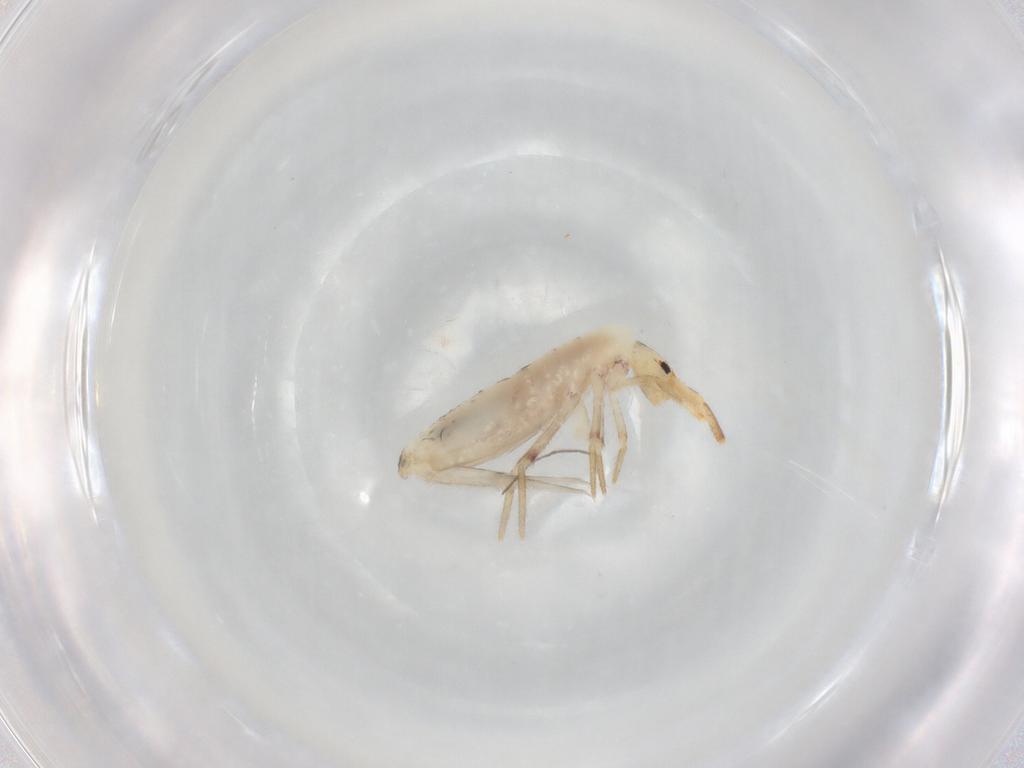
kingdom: Animalia
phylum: Arthropoda
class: Collembola
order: Poduromorpha
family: Hypogastruridae
